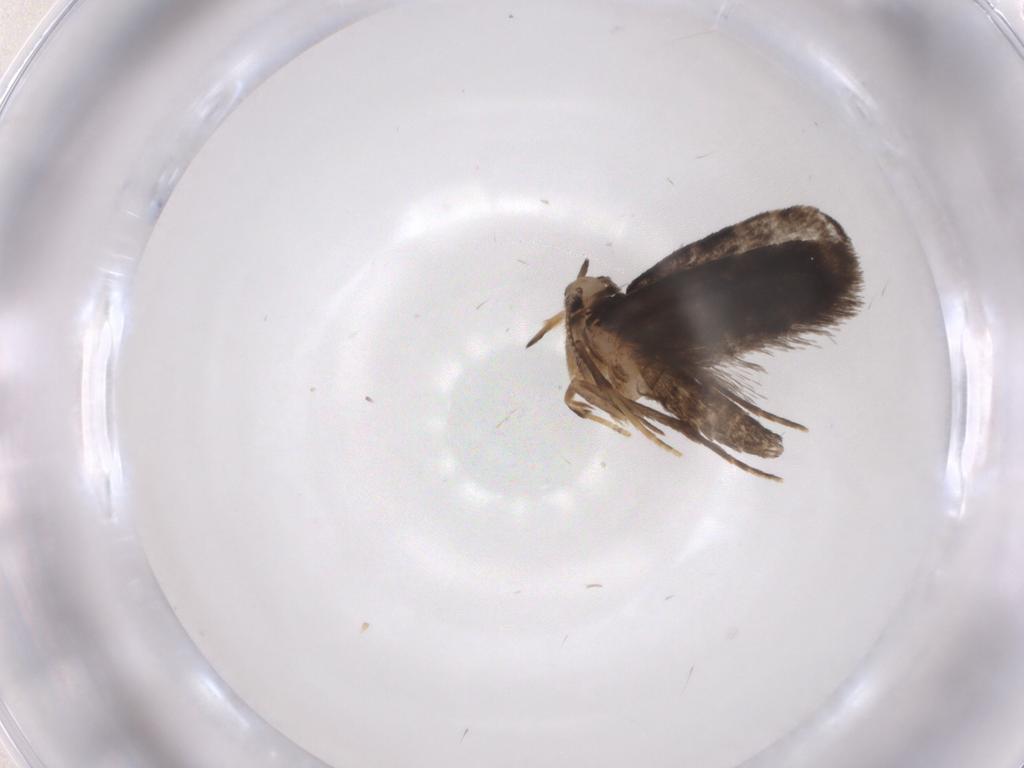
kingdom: Animalia
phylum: Arthropoda
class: Insecta
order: Lepidoptera
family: Psychidae
